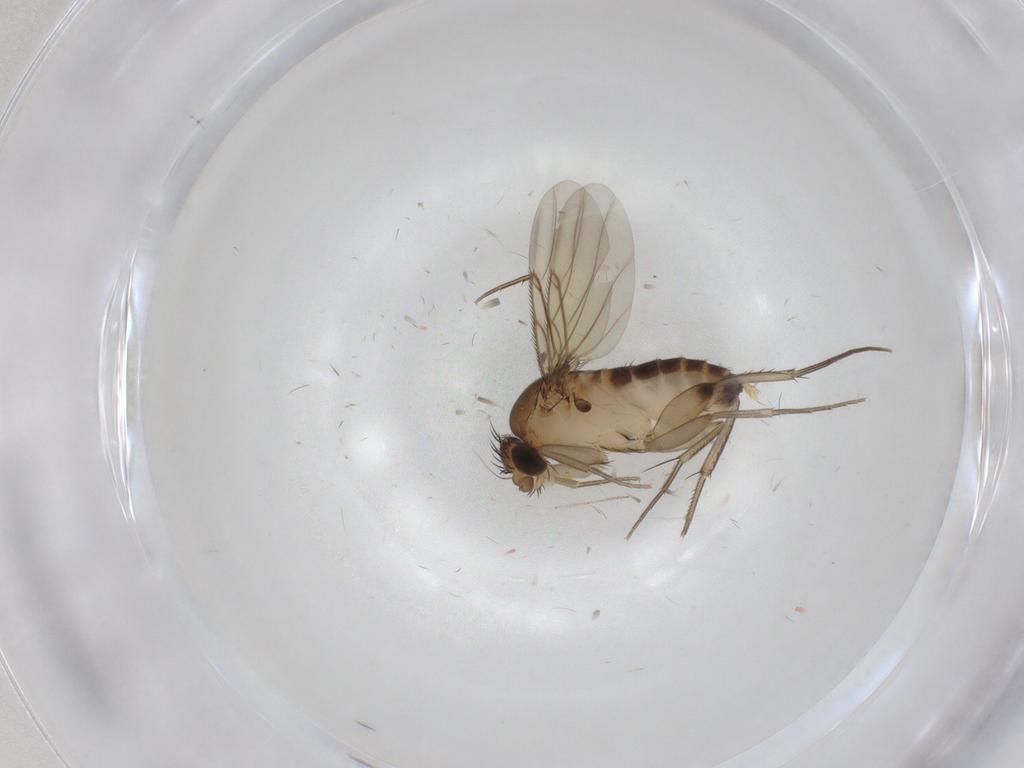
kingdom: Animalia
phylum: Arthropoda
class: Insecta
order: Diptera
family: Phoridae
